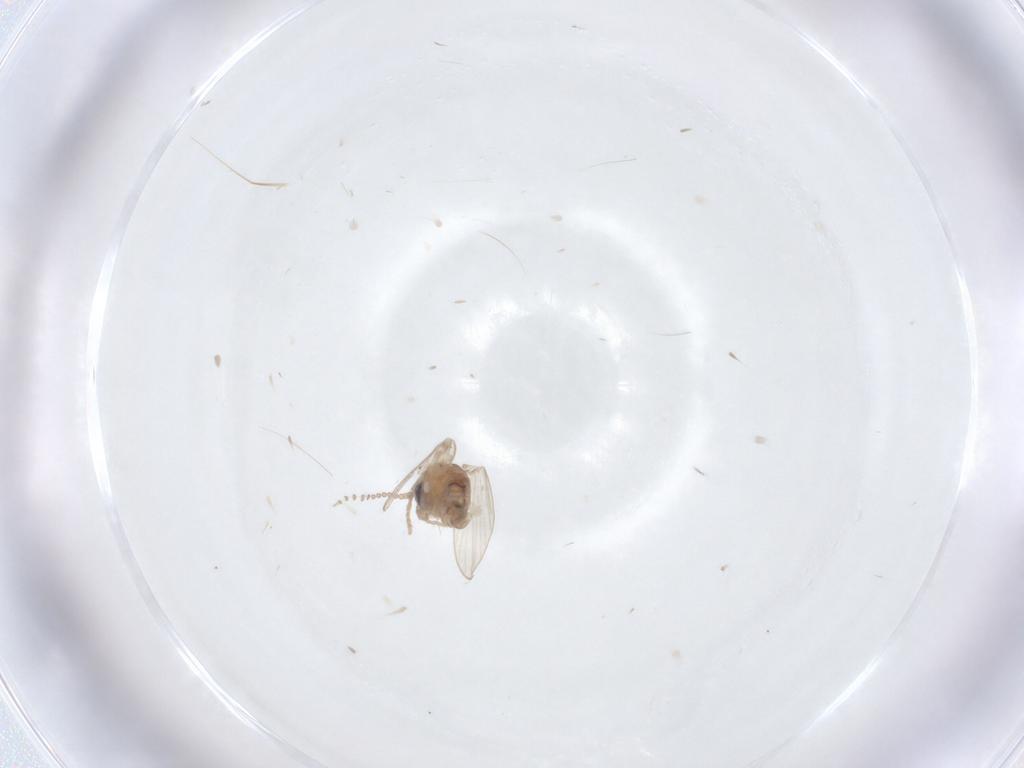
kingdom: Animalia
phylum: Arthropoda
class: Insecta
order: Diptera
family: Psychodidae
